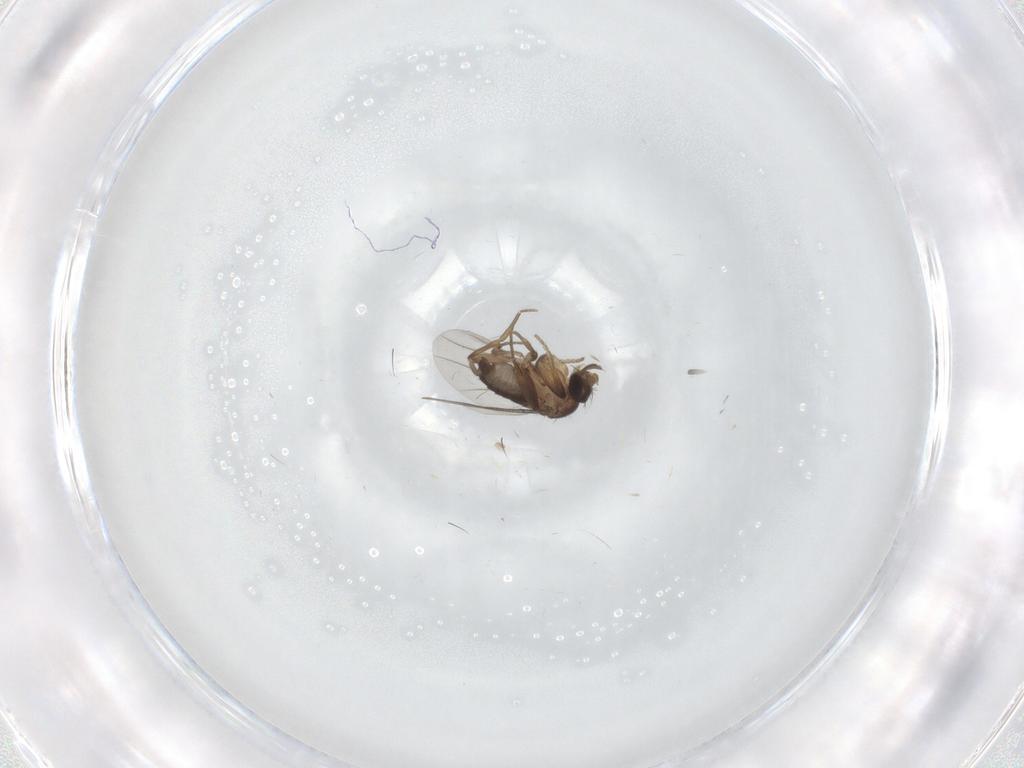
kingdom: Animalia
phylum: Arthropoda
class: Insecta
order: Diptera
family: Phoridae
